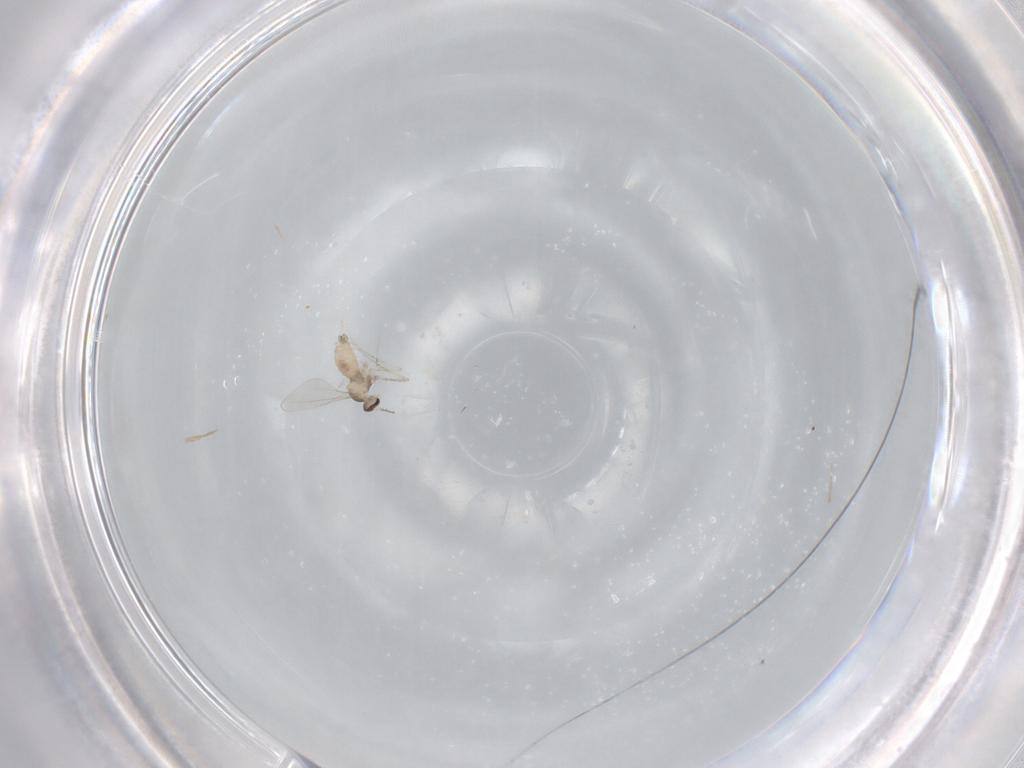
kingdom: Animalia
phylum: Arthropoda
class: Insecta
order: Diptera
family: Cecidomyiidae
